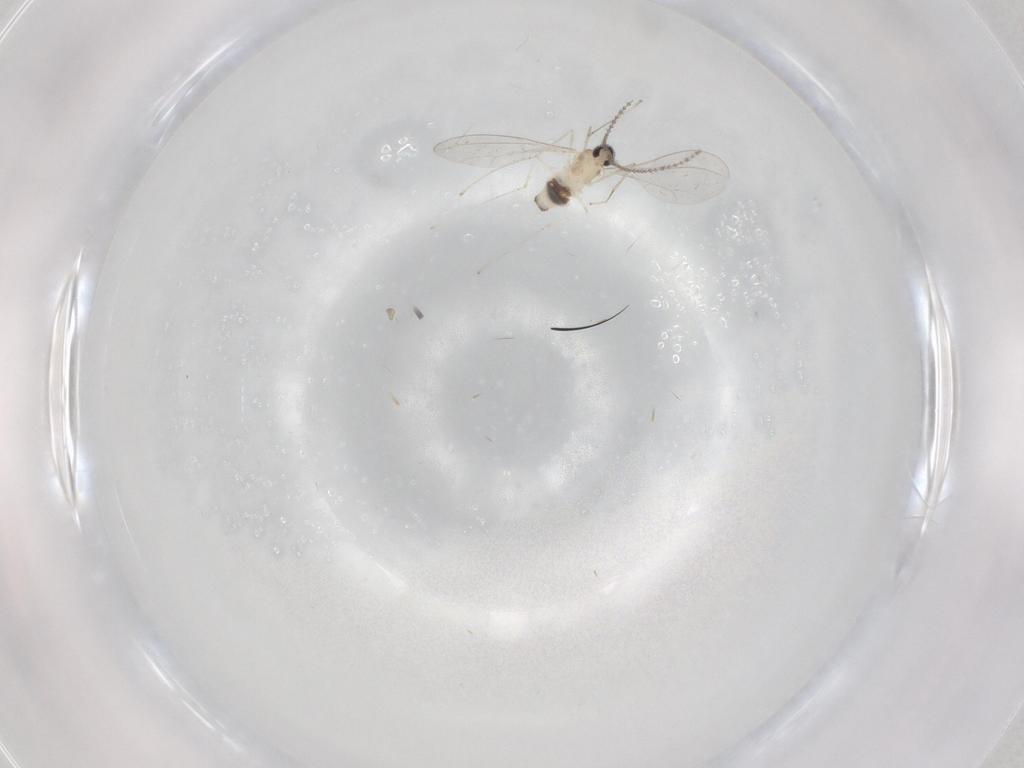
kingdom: Animalia
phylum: Arthropoda
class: Insecta
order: Diptera
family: Cecidomyiidae
